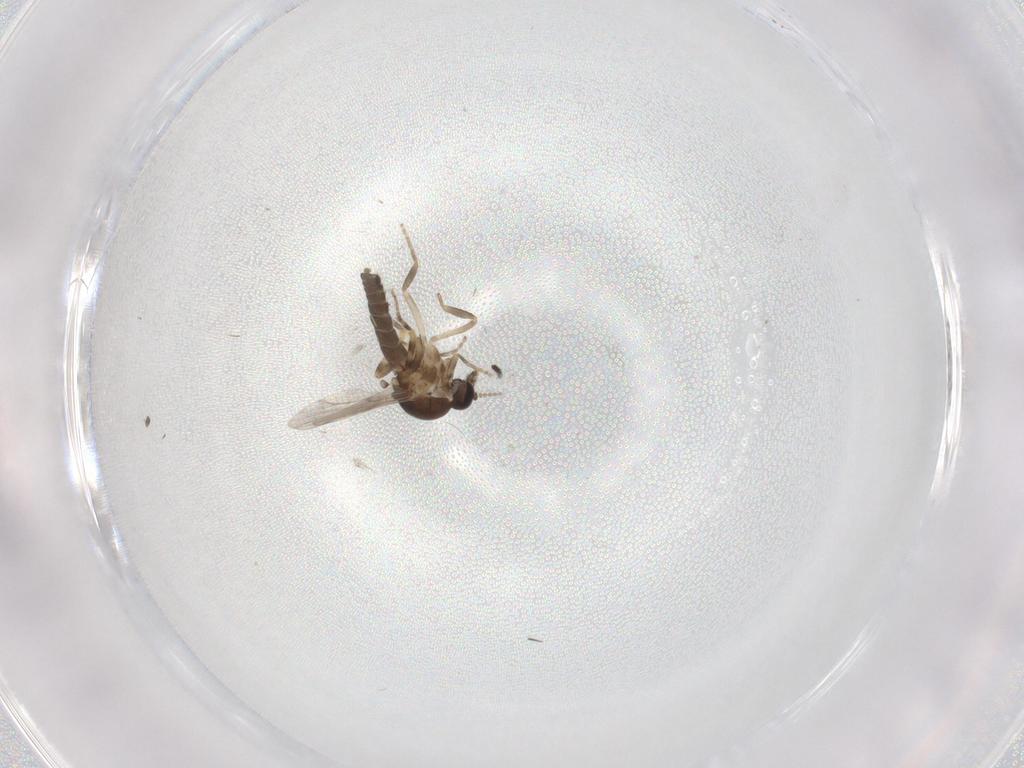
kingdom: Animalia
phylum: Arthropoda
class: Insecta
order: Diptera
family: Ceratopogonidae
